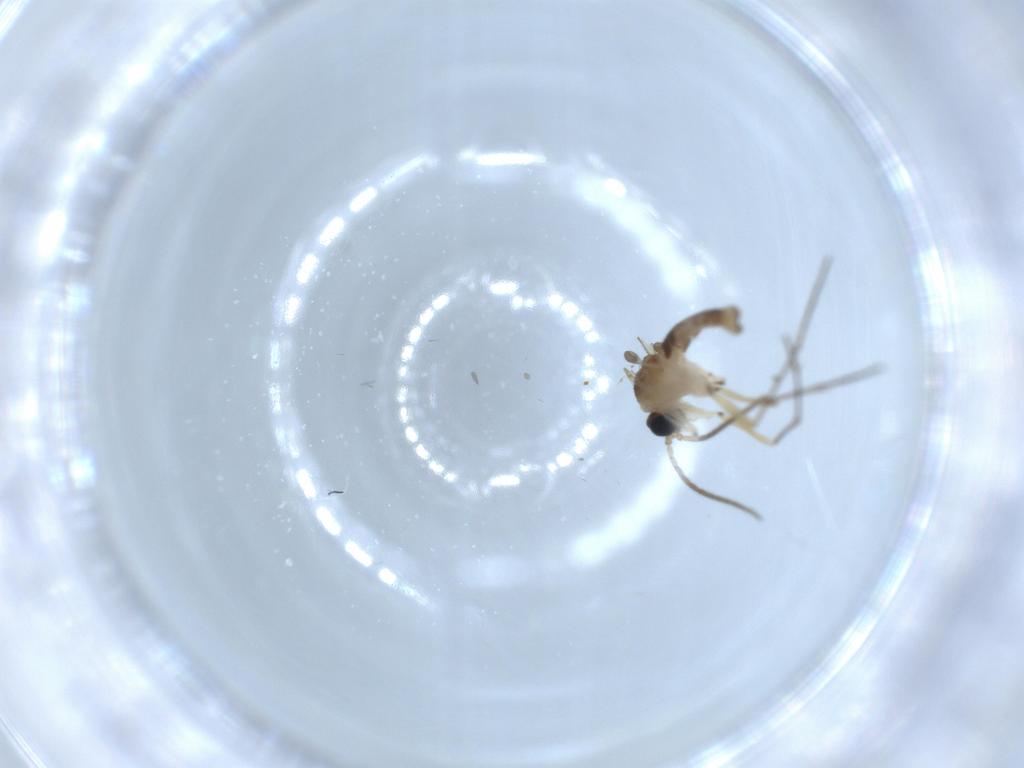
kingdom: Animalia
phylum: Arthropoda
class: Insecta
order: Diptera
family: Sciaridae
